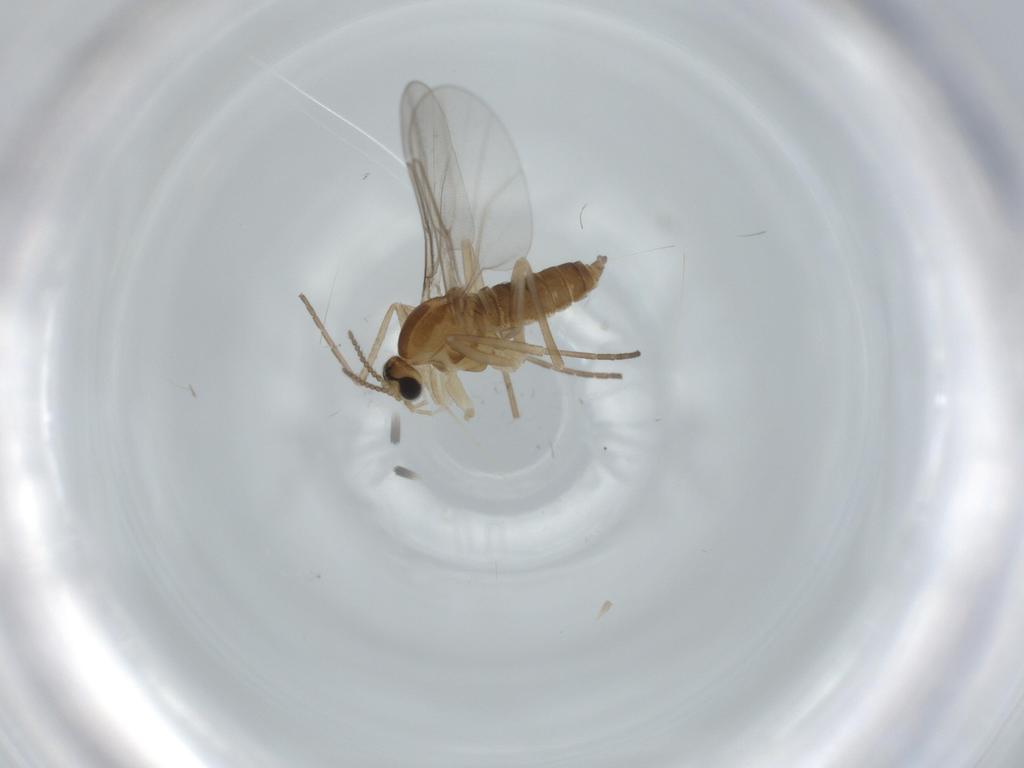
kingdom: Animalia
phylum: Arthropoda
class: Insecta
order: Diptera
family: Cecidomyiidae
